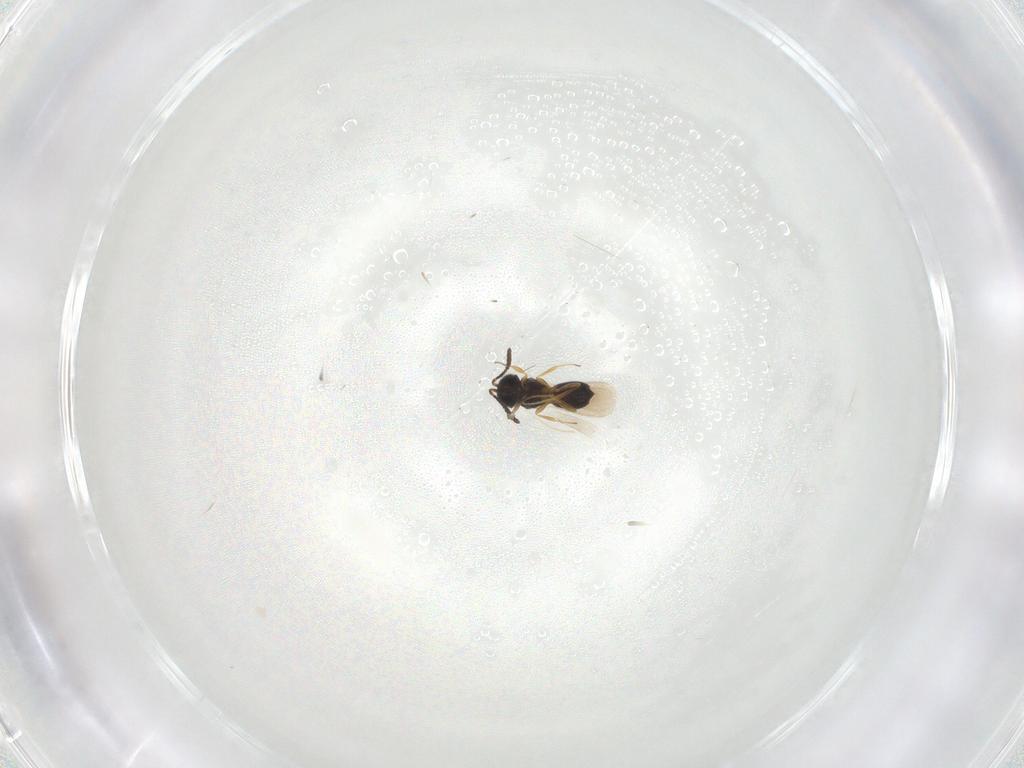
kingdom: Animalia
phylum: Arthropoda
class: Insecta
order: Hymenoptera
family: Scelionidae
